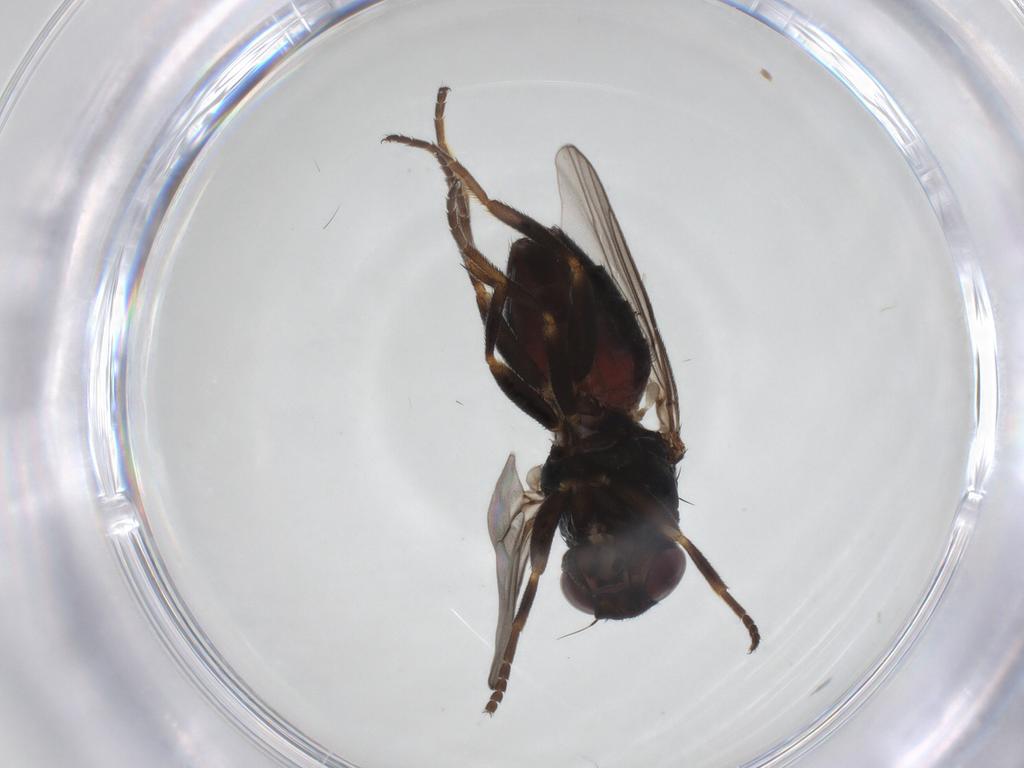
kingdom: Animalia
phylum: Arthropoda
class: Insecta
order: Diptera
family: Chloropidae
